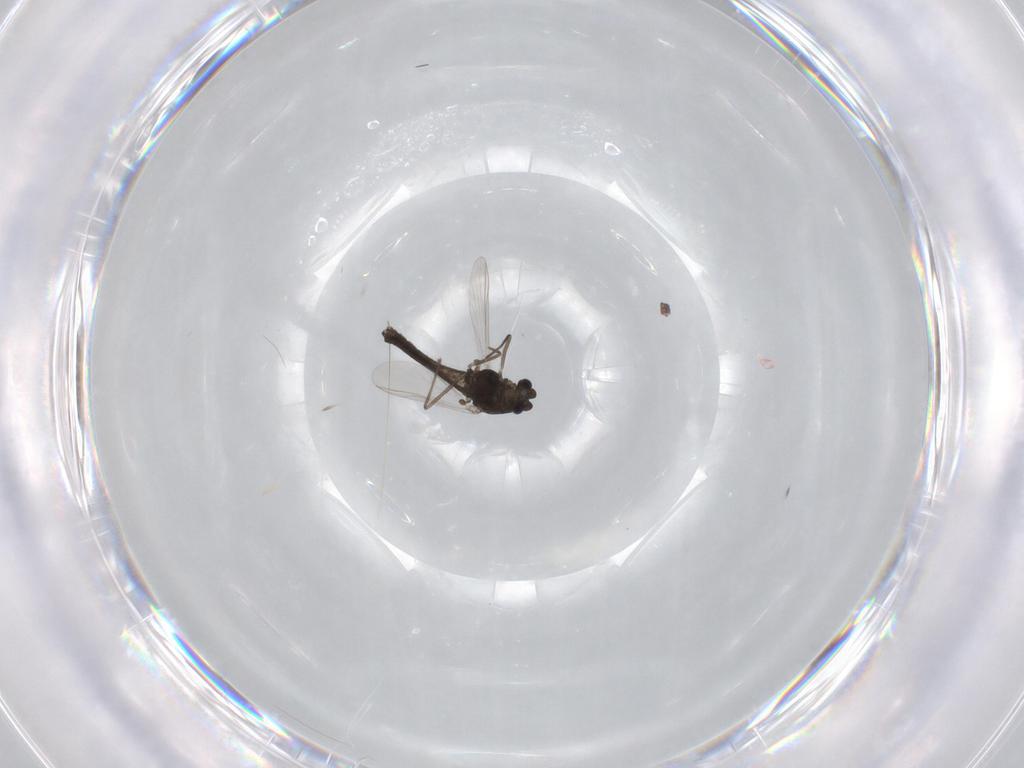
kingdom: Animalia
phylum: Arthropoda
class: Insecta
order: Diptera
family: Chironomidae
